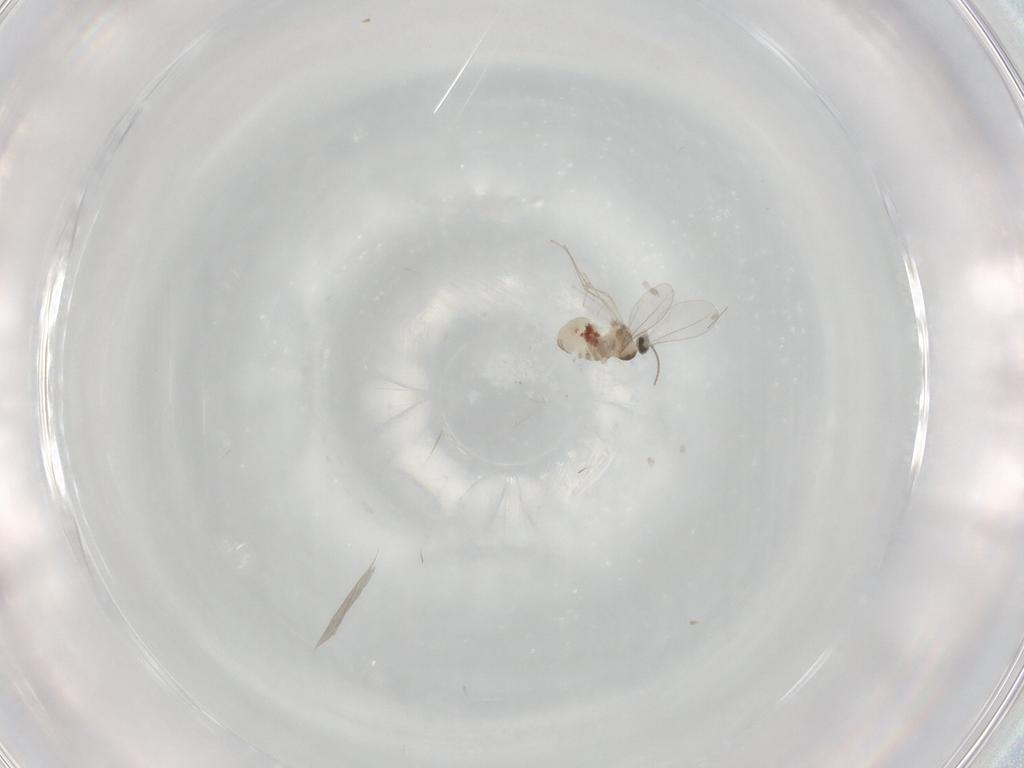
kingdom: Animalia
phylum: Arthropoda
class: Insecta
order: Diptera
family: Cecidomyiidae
